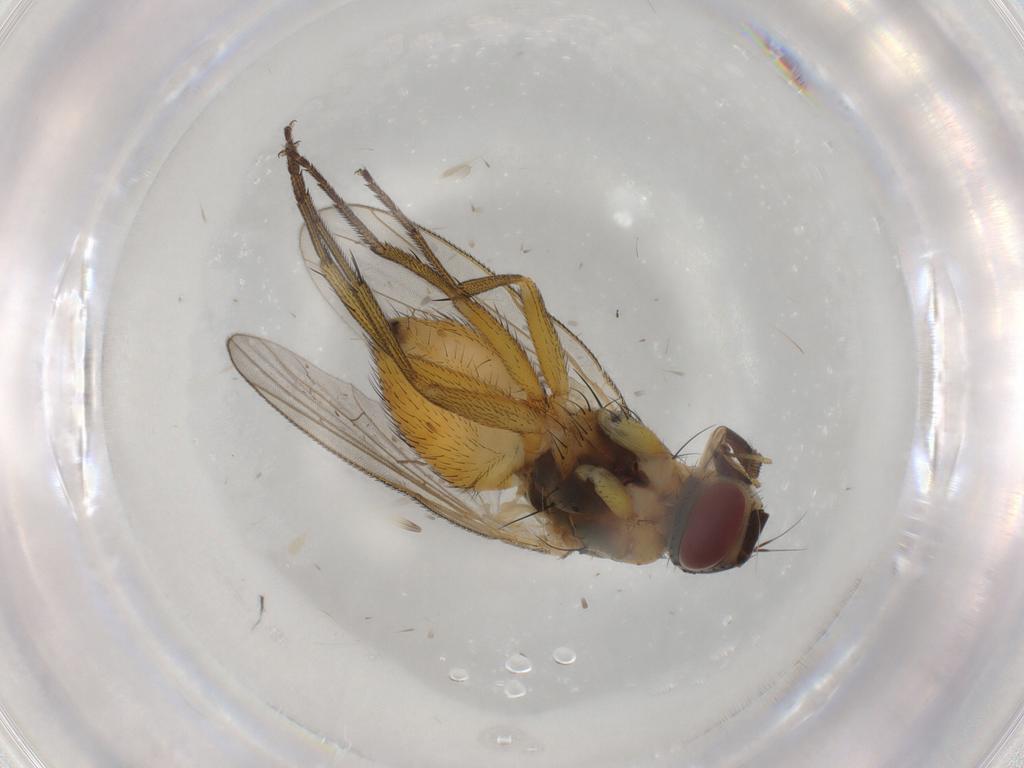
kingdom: Animalia
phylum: Arthropoda
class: Insecta
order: Diptera
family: Muscidae
